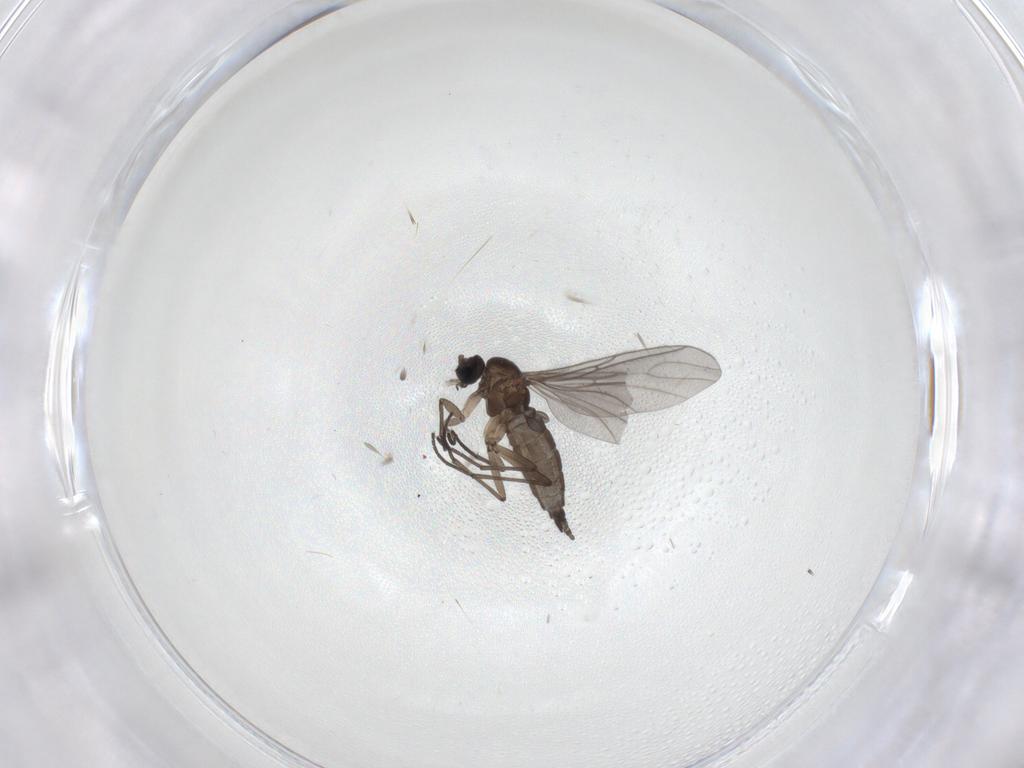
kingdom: Animalia
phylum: Arthropoda
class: Insecta
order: Diptera
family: Sciaridae
